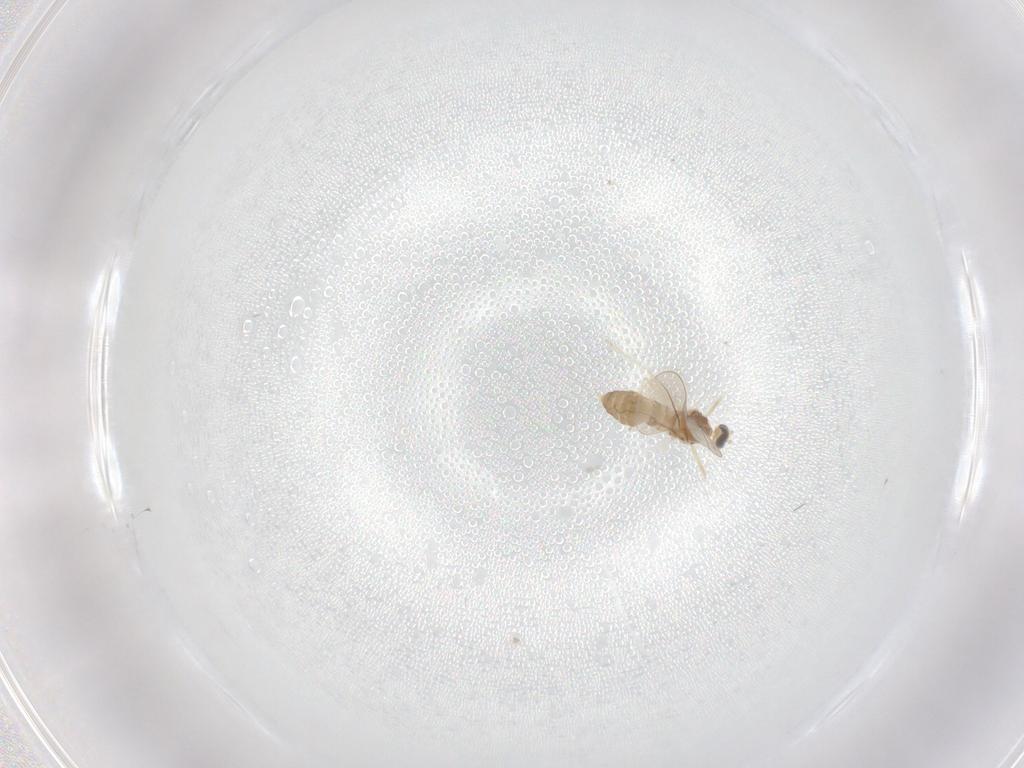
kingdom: Animalia
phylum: Arthropoda
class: Insecta
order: Diptera
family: Cecidomyiidae
